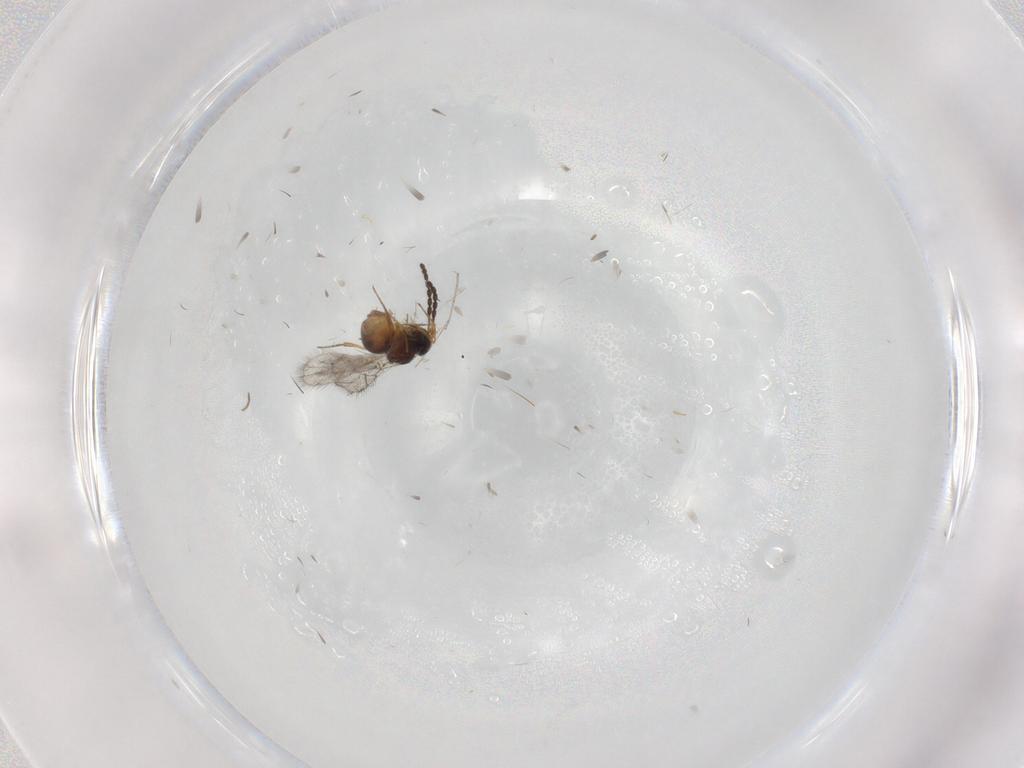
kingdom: Animalia
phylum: Arthropoda
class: Insecta
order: Hymenoptera
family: Figitidae
